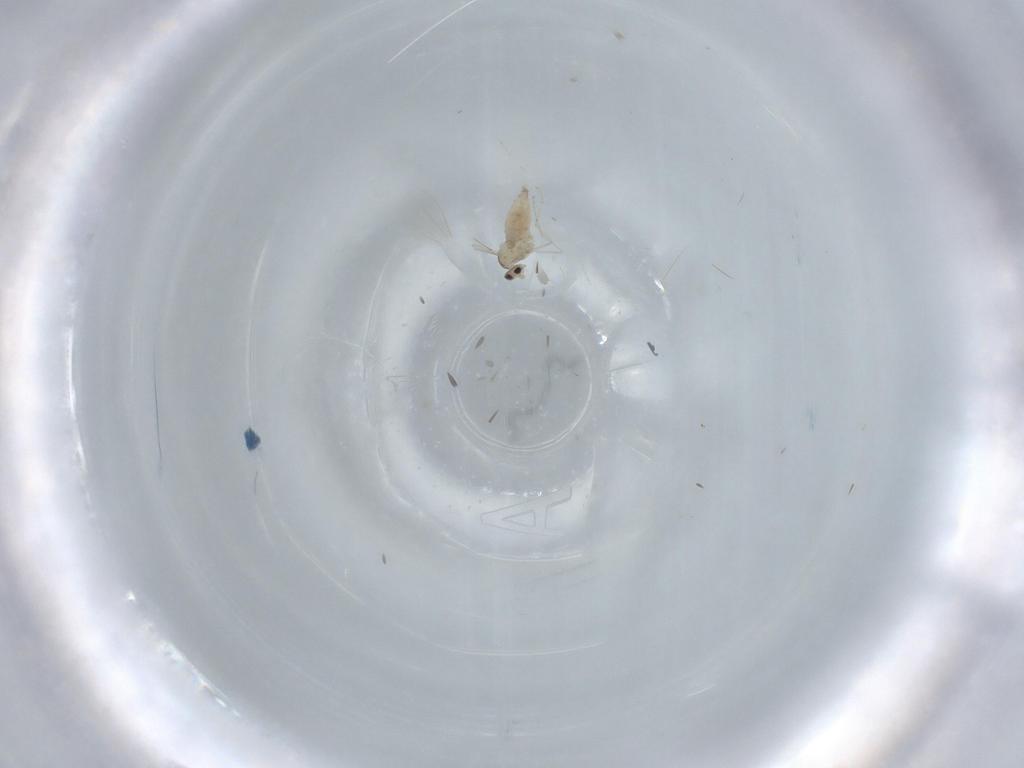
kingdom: Animalia
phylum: Arthropoda
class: Insecta
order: Diptera
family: Cecidomyiidae
